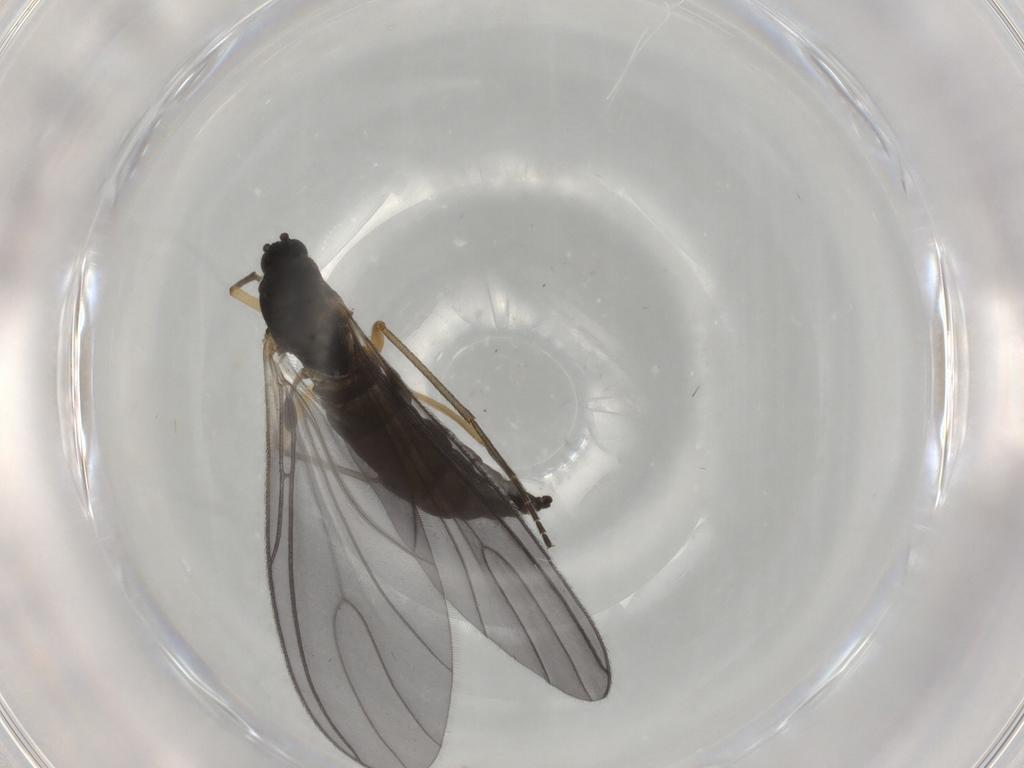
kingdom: Animalia
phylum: Arthropoda
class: Insecta
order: Diptera
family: Sciaridae
